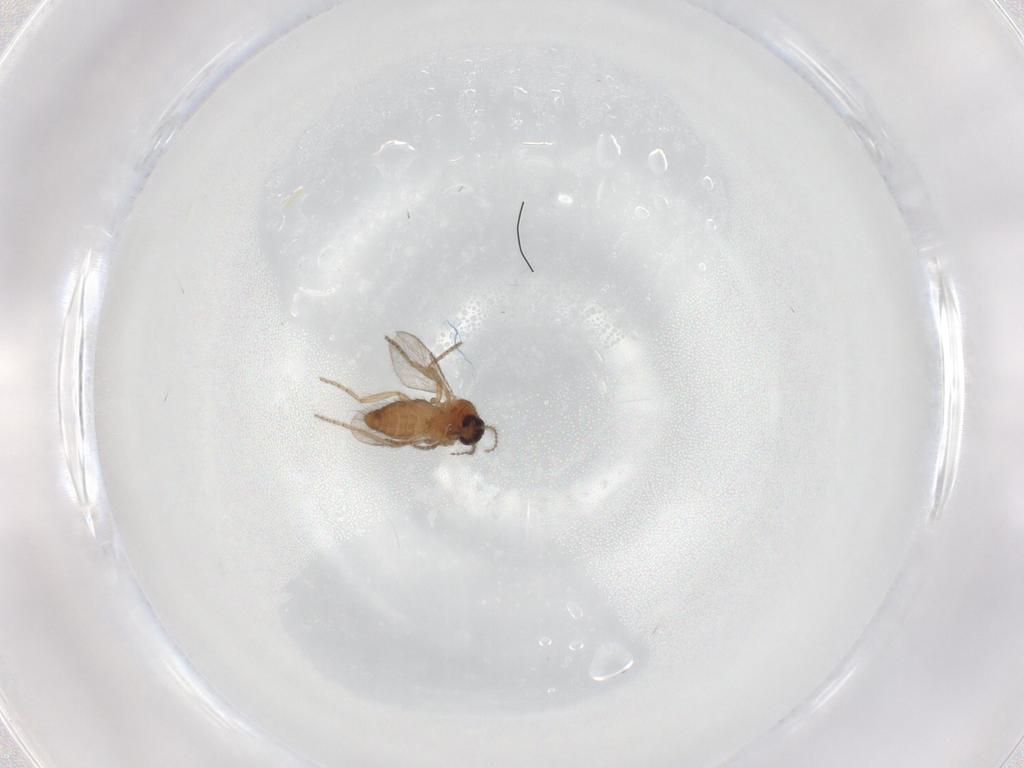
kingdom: Animalia
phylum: Arthropoda
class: Insecta
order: Diptera
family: Ceratopogonidae
